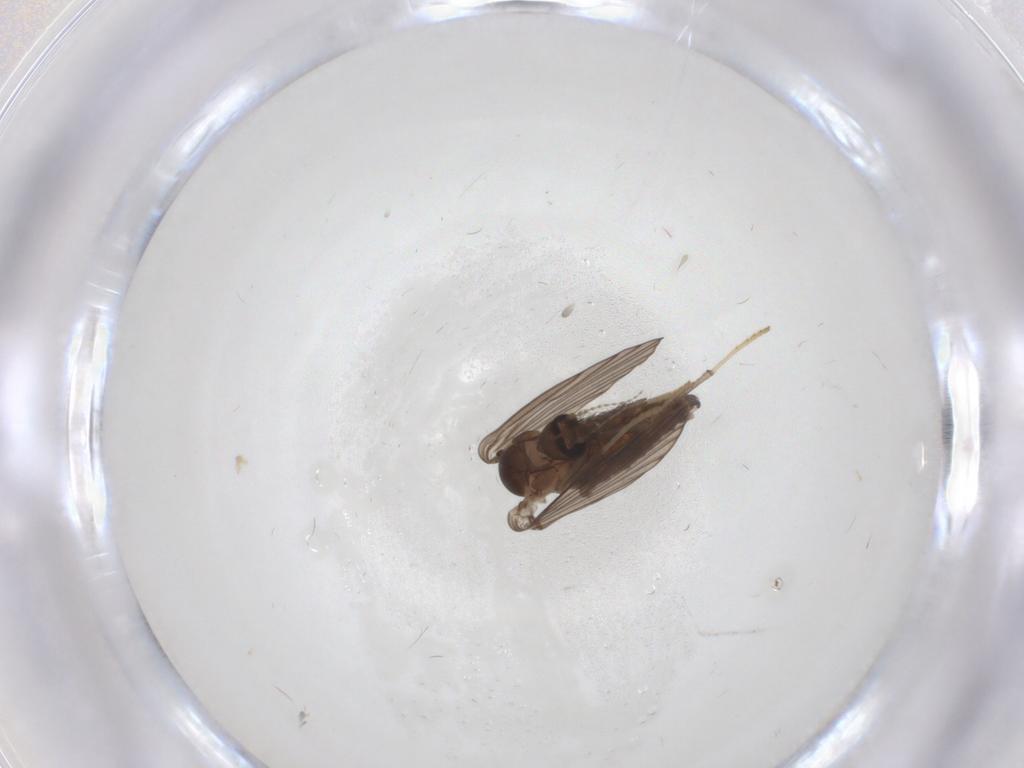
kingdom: Animalia
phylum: Arthropoda
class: Insecta
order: Diptera
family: Psychodidae
